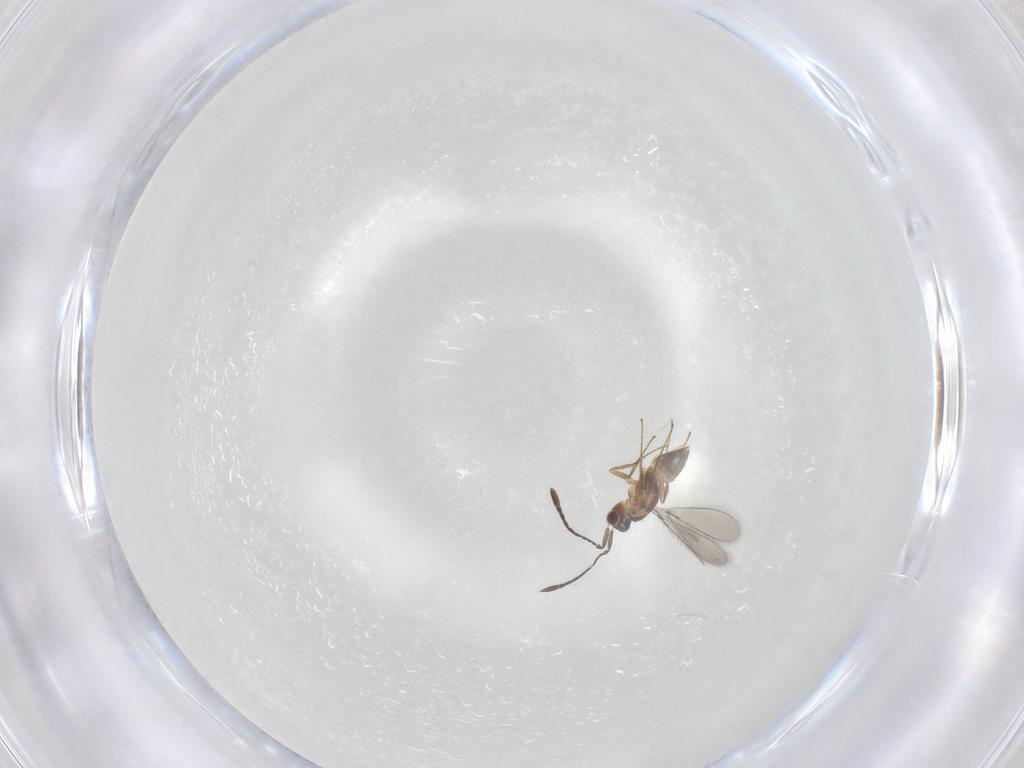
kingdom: Animalia
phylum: Arthropoda
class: Insecta
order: Hymenoptera
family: Mymaridae
